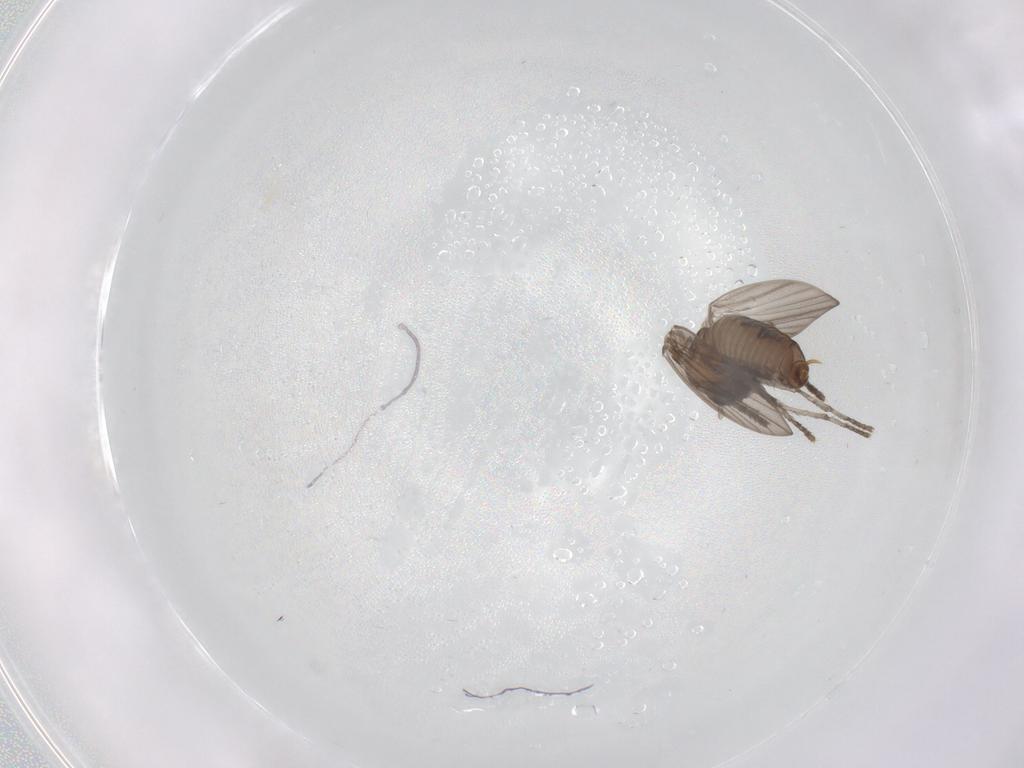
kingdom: Animalia
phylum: Arthropoda
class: Insecta
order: Diptera
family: Psychodidae
